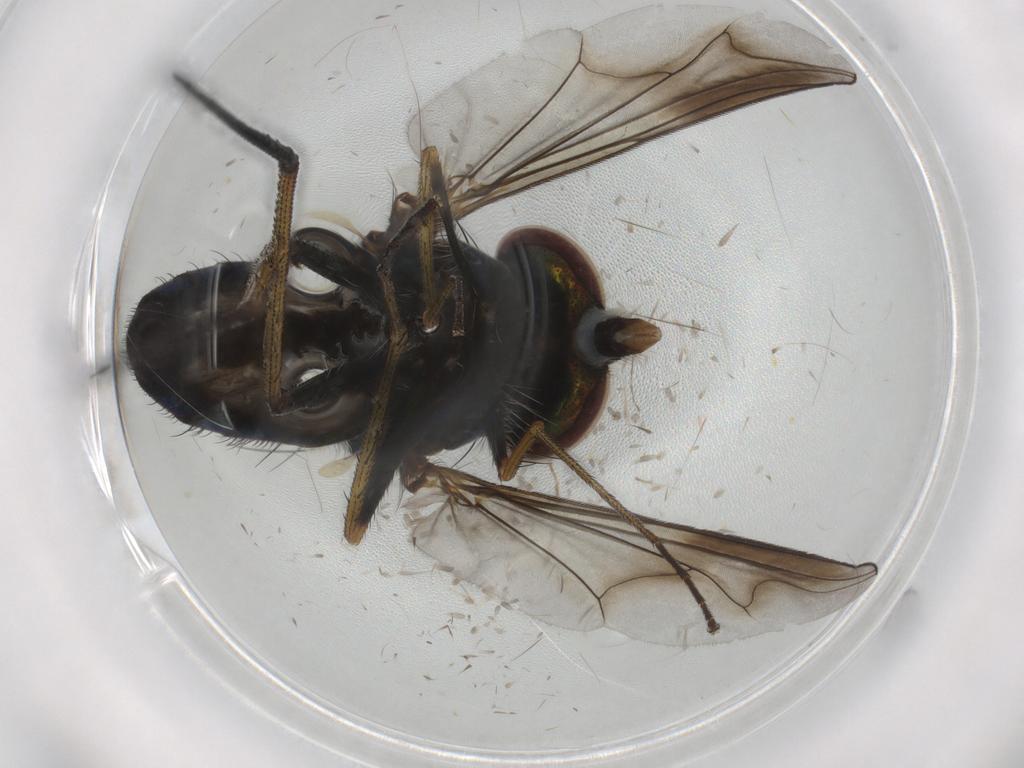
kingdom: Animalia
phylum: Arthropoda
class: Insecta
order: Diptera
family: Dolichopodidae
